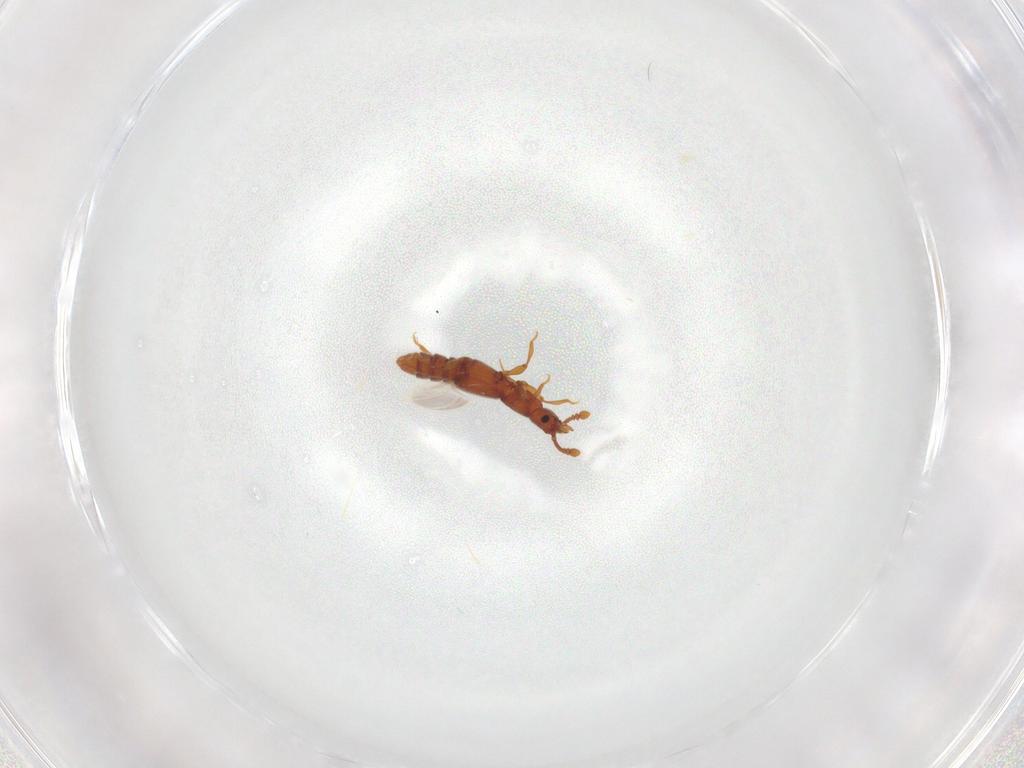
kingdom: Animalia
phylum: Arthropoda
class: Insecta
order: Coleoptera
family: Staphylinidae
